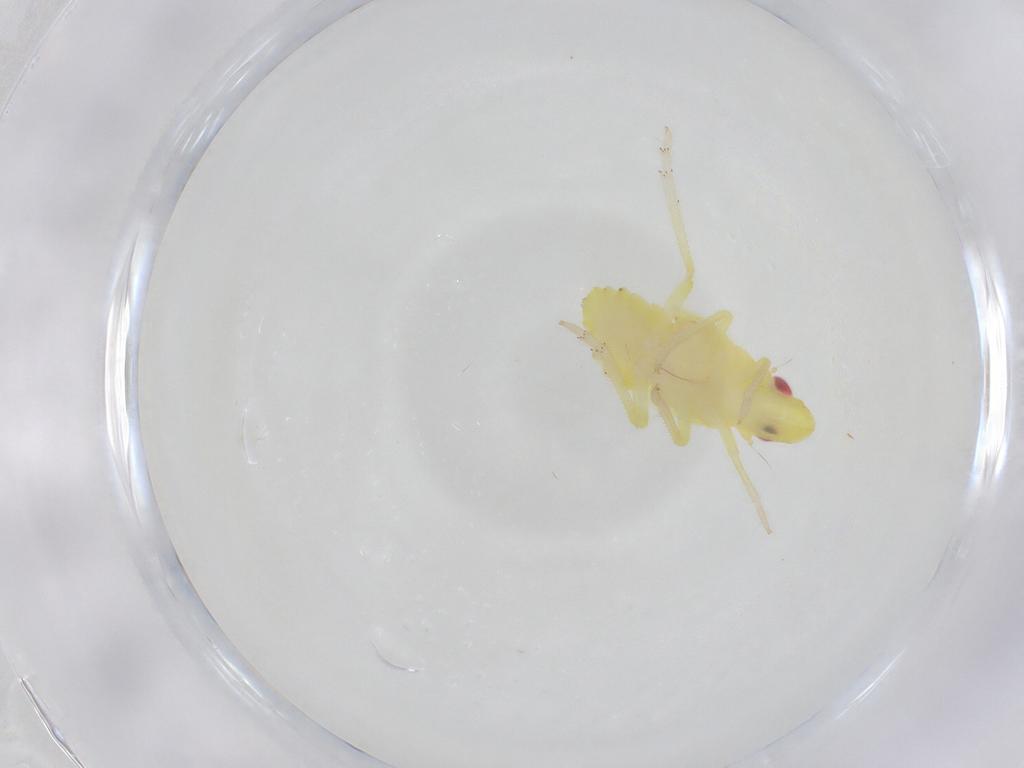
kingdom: Animalia
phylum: Arthropoda
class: Insecta
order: Hemiptera
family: Tropiduchidae
